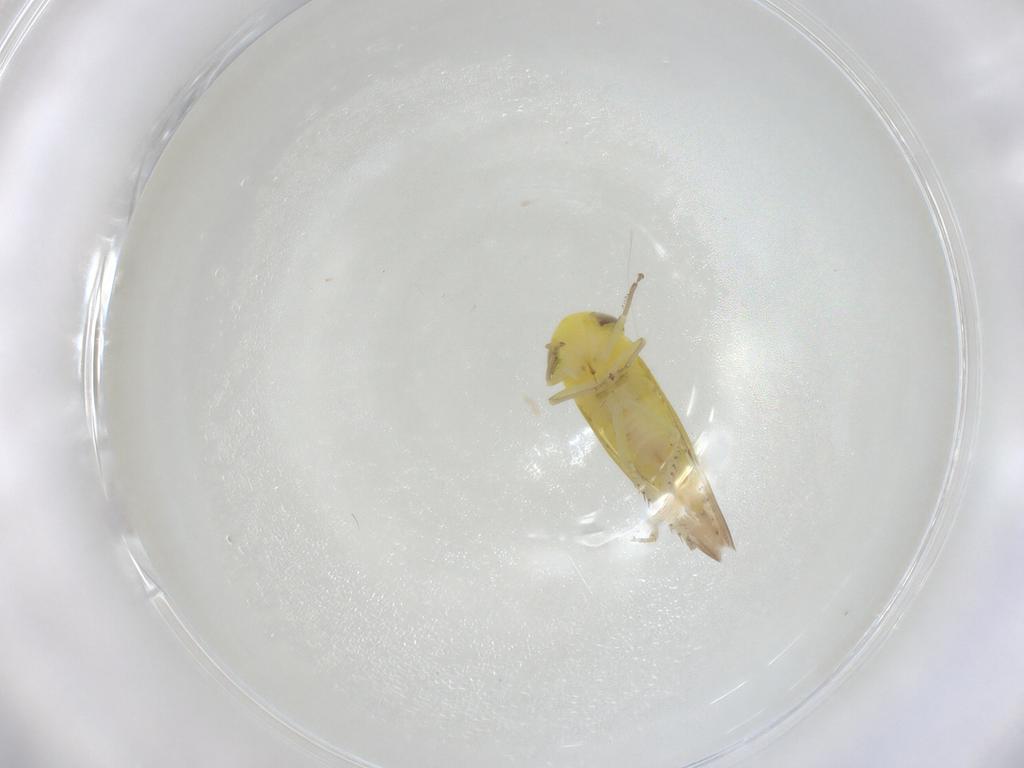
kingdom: Animalia
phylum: Arthropoda
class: Insecta
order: Hemiptera
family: Cicadellidae
